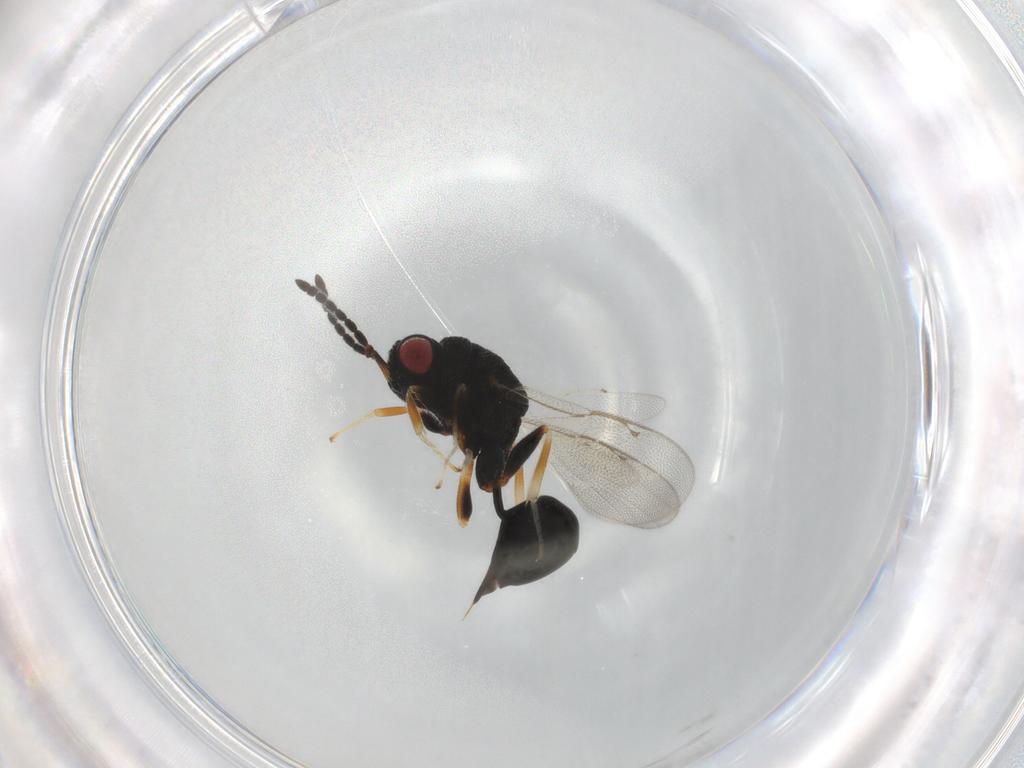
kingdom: Animalia
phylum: Arthropoda
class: Insecta
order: Hymenoptera
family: Eurytomidae
